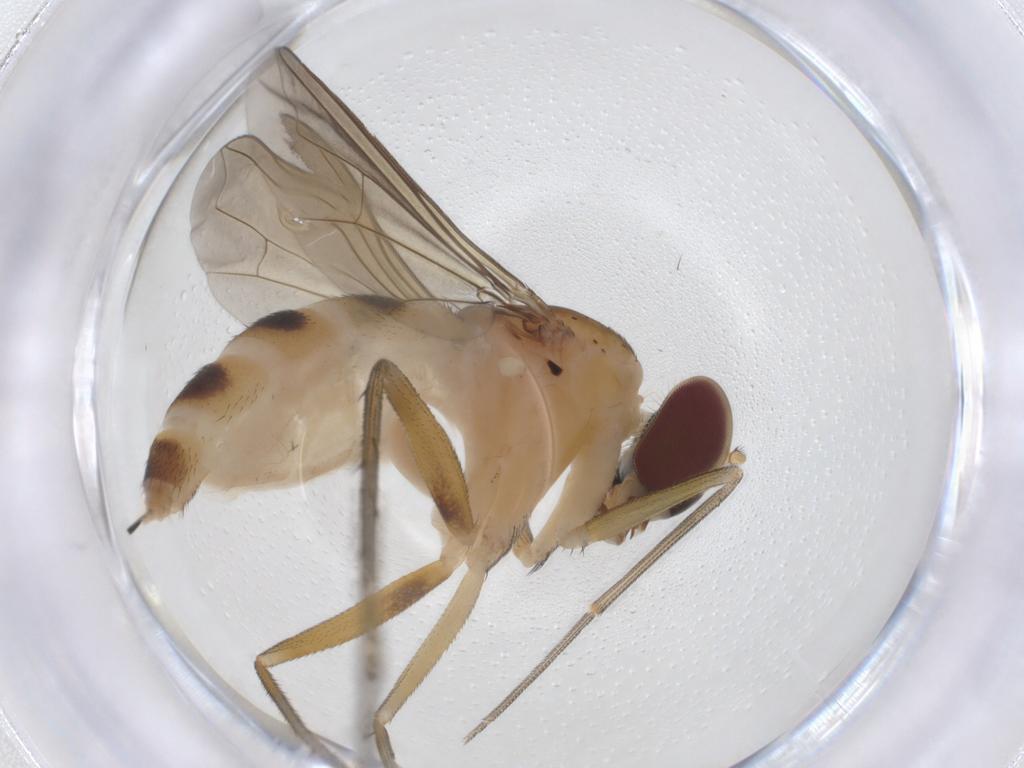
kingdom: Animalia
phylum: Arthropoda
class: Insecta
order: Diptera
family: Dolichopodidae
